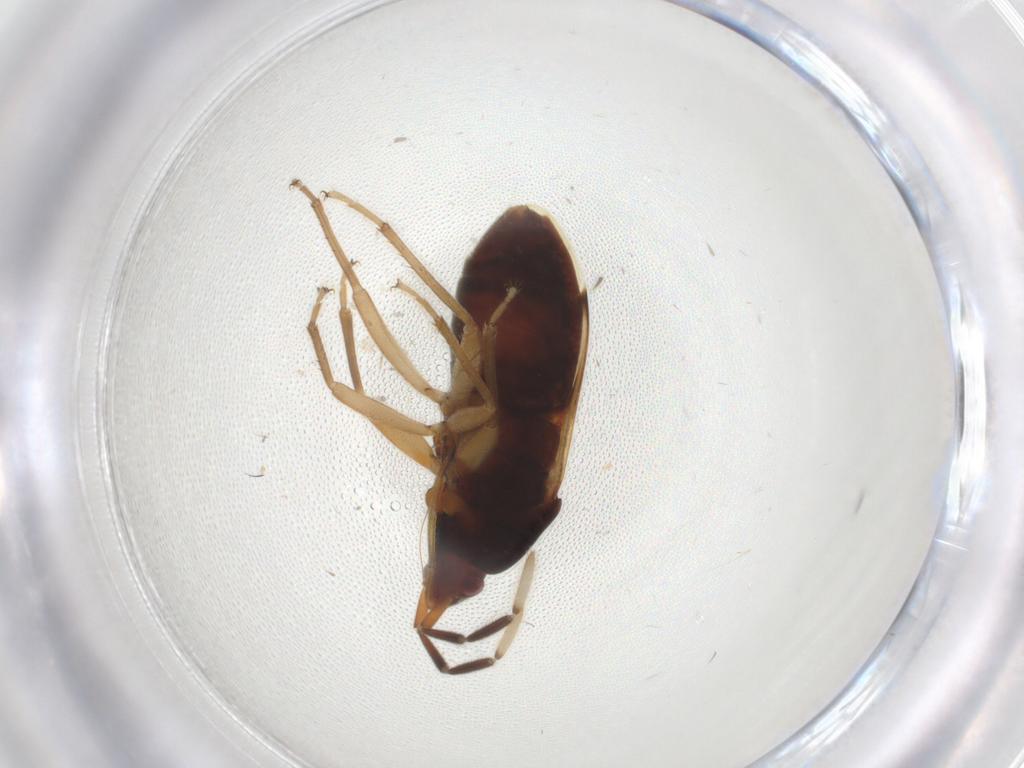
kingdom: Animalia
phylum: Arthropoda
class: Insecta
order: Hemiptera
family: Rhyparochromidae
